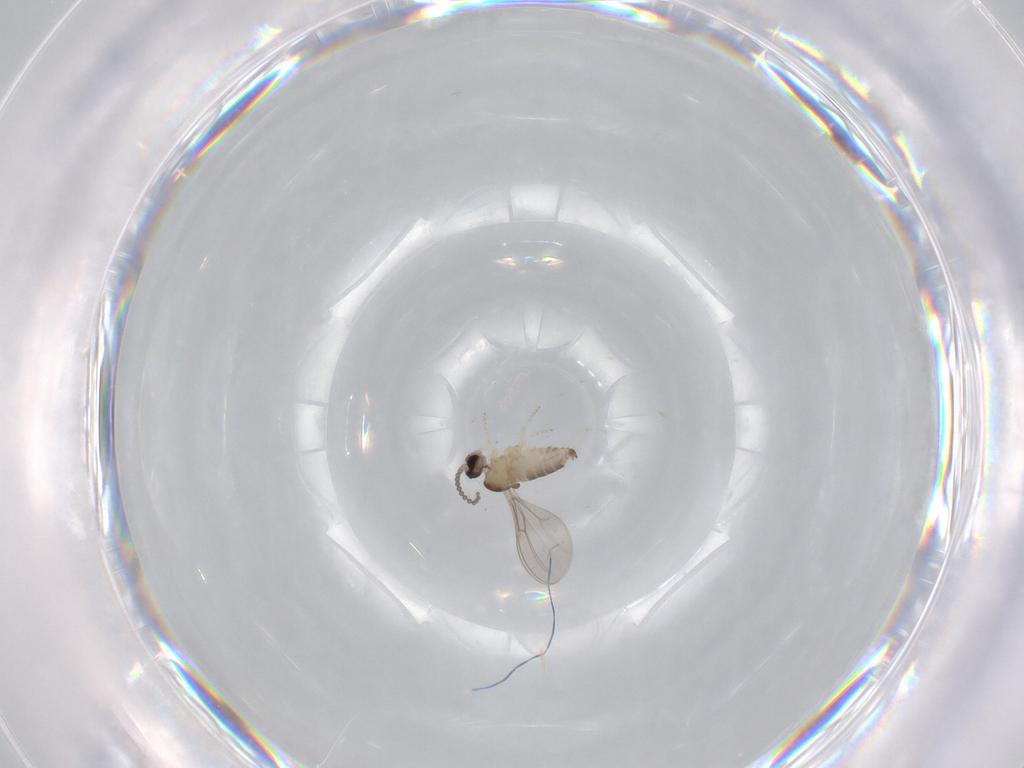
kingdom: Animalia
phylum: Arthropoda
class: Insecta
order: Diptera
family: Cecidomyiidae
